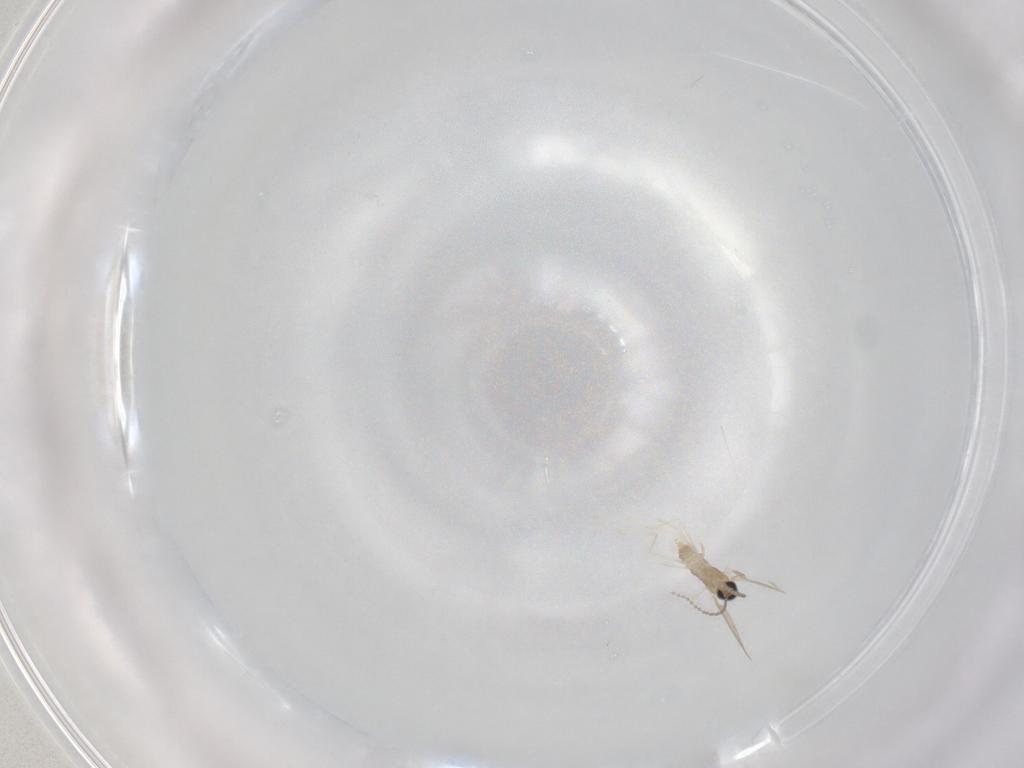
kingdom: Animalia
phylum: Arthropoda
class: Insecta
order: Diptera
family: Cecidomyiidae
